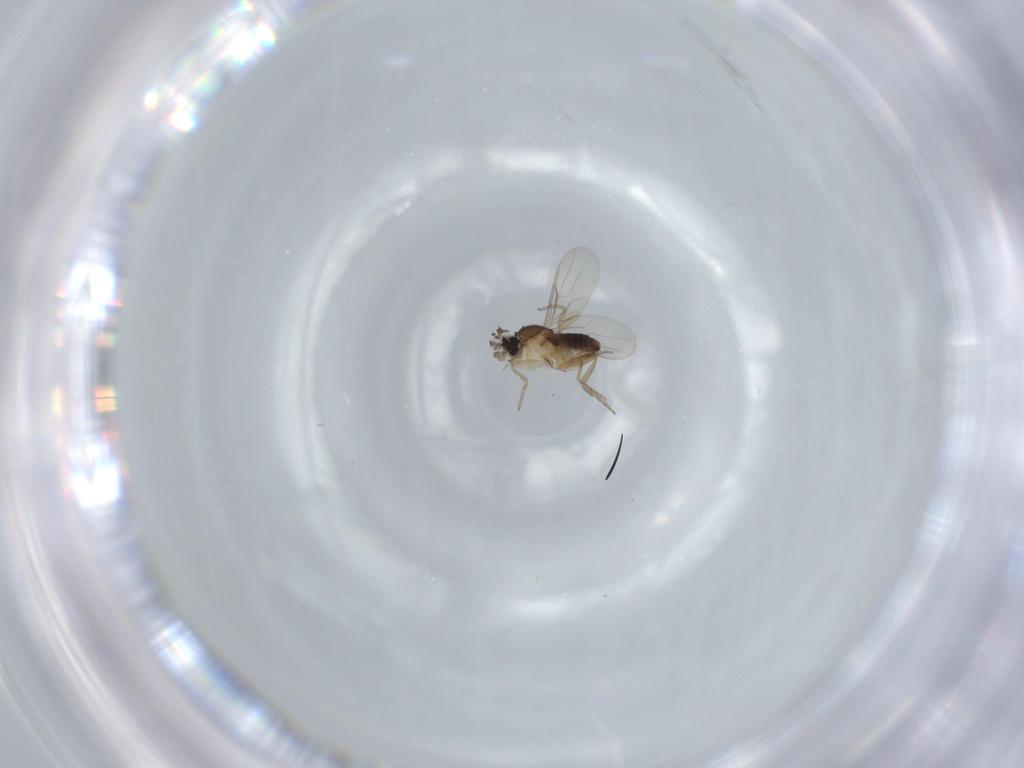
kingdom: Animalia
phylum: Arthropoda
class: Insecta
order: Diptera
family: Phoridae
